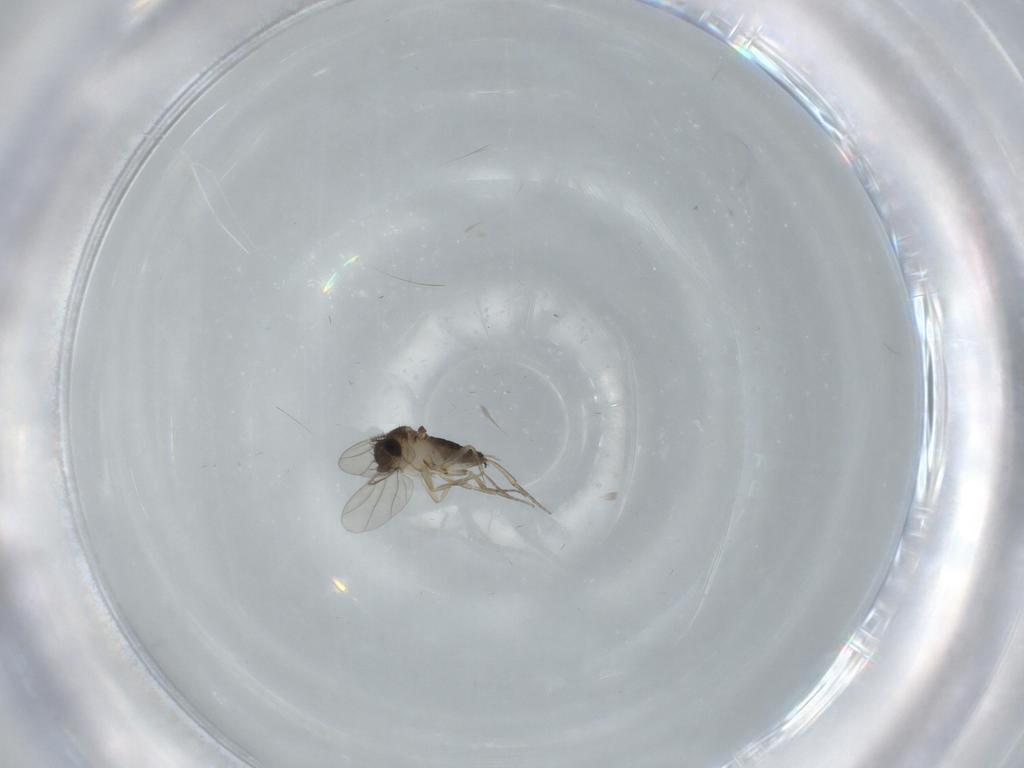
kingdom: Animalia
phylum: Arthropoda
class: Insecta
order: Diptera
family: Phoridae
